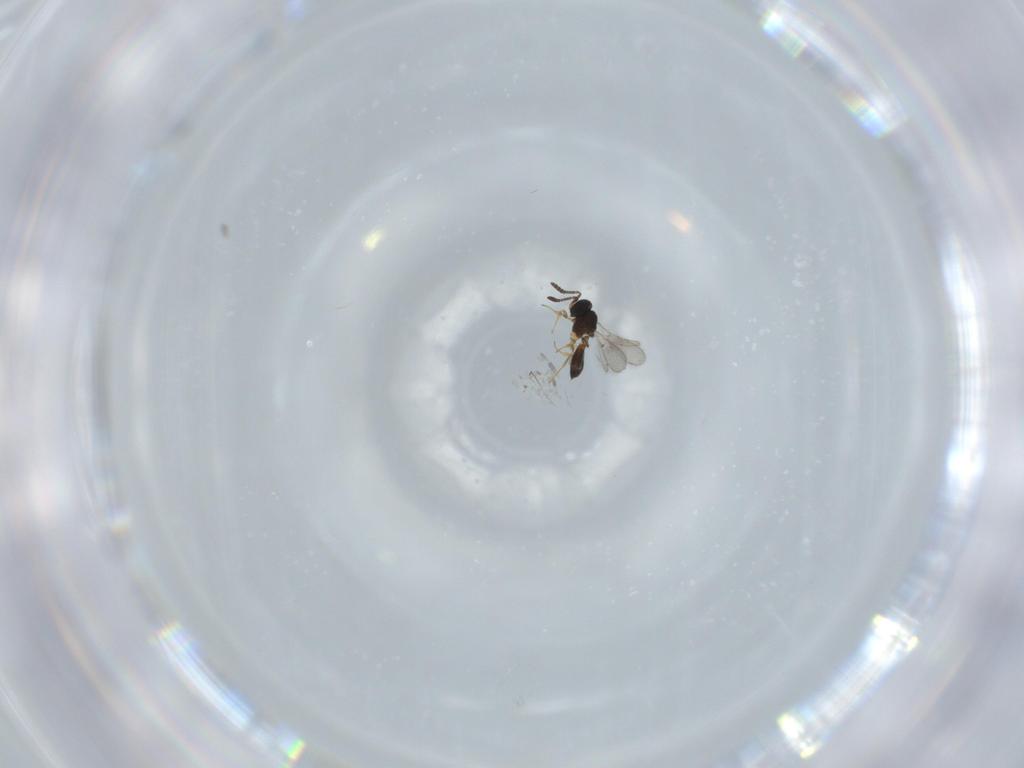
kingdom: Animalia
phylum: Arthropoda
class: Insecta
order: Hymenoptera
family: Scelionidae
